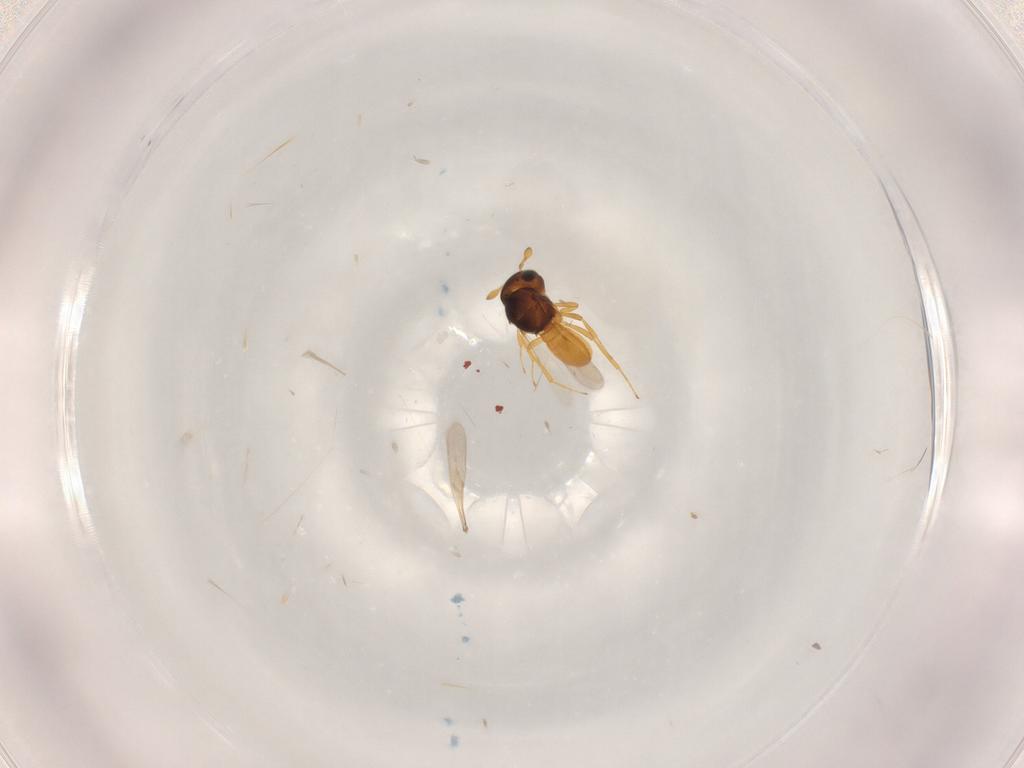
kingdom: Animalia
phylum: Arthropoda
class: Insecta
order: Hymenoptera
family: Scelionidae
